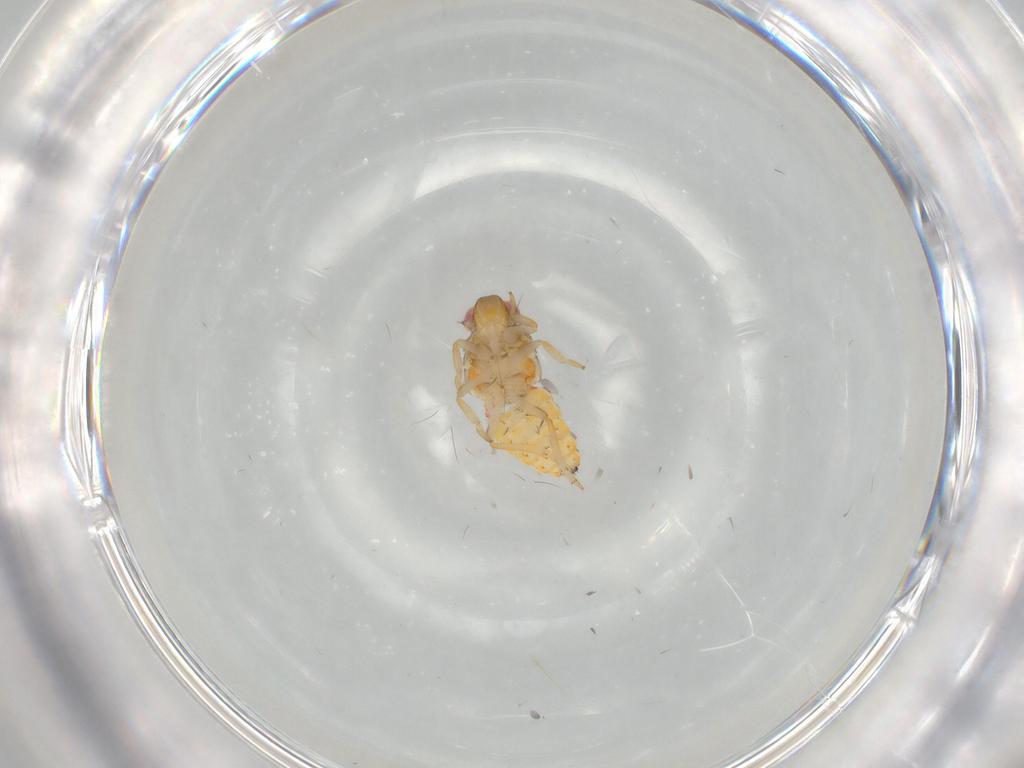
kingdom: Animalia
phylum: Arthropoda
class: Insecta
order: Hemiptera
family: Issidae
